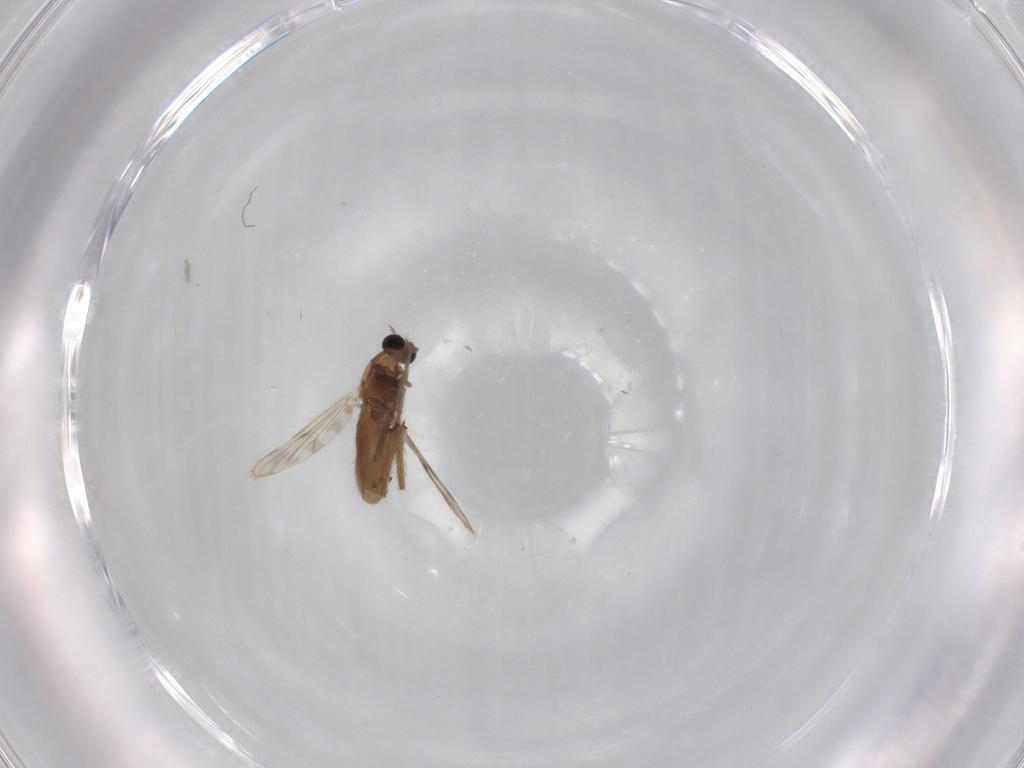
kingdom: Animalia
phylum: Arthropoda
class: Insecta
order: Diptera
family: Chironomidae
